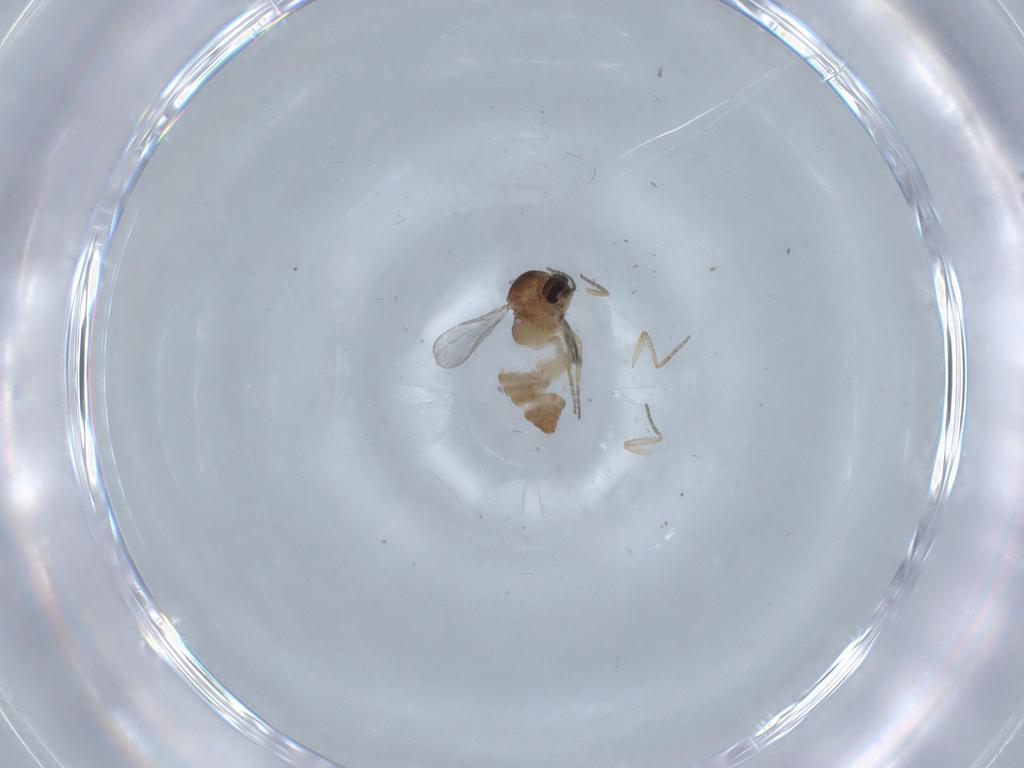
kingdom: Animalia
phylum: Arthropoda
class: Insecta
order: Diptera
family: Ceratopogonidae
